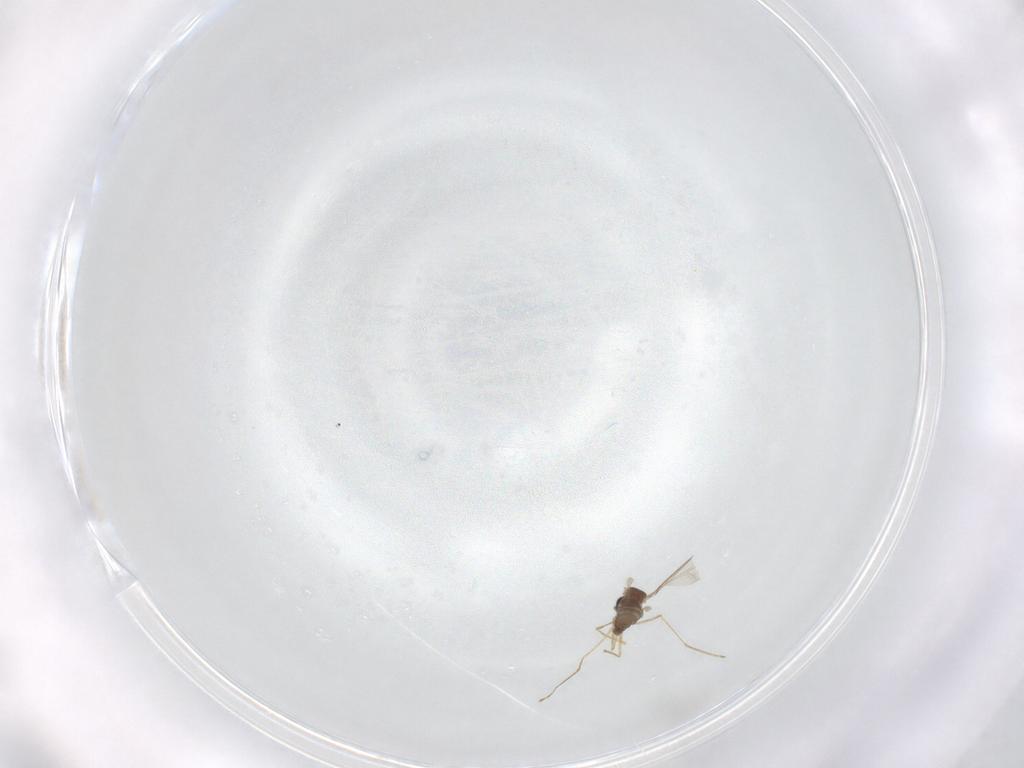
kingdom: Animalia
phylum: Arthropoda
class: Insecta
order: Diptera
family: Cecidomyiidae
